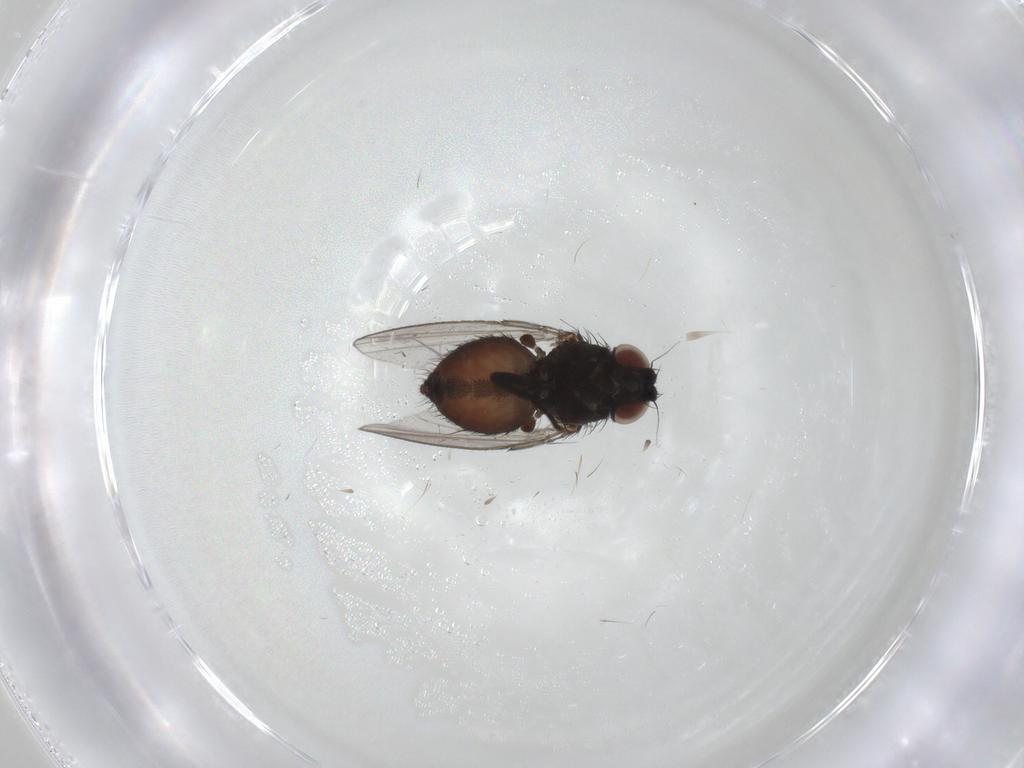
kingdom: Animalia
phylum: Arthropoda
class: Insecta
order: Diptera
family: Milichiidae
